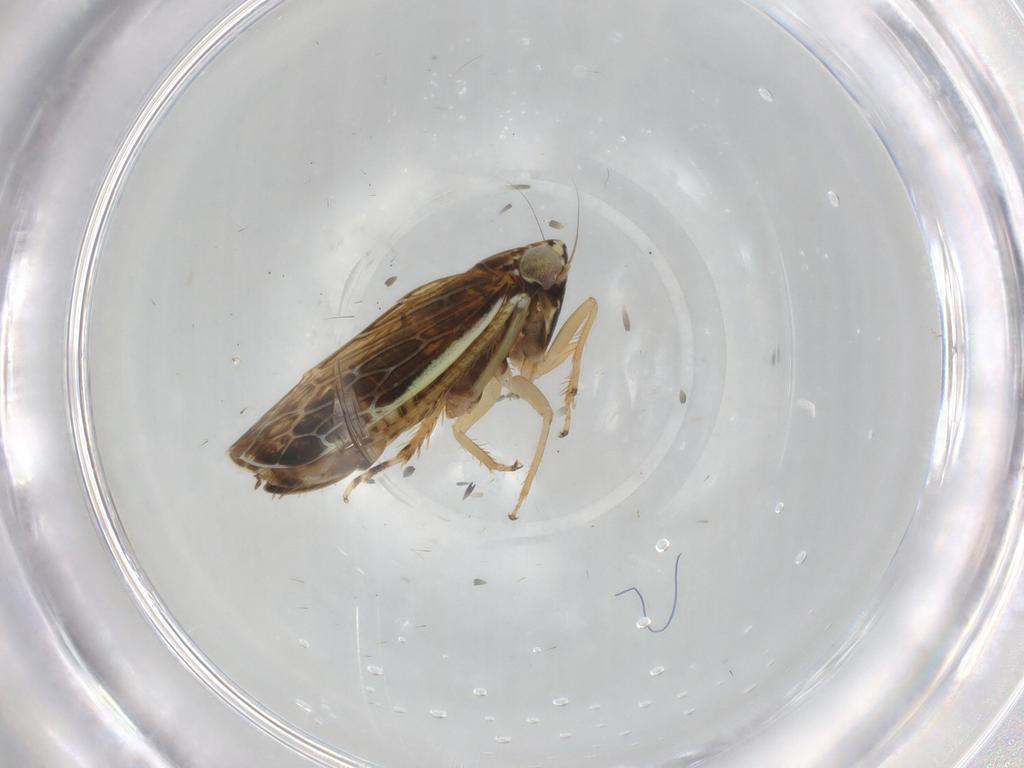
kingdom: Animalia
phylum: Arthropoda
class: Insecta
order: Hemiptera
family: Cicadellidae
